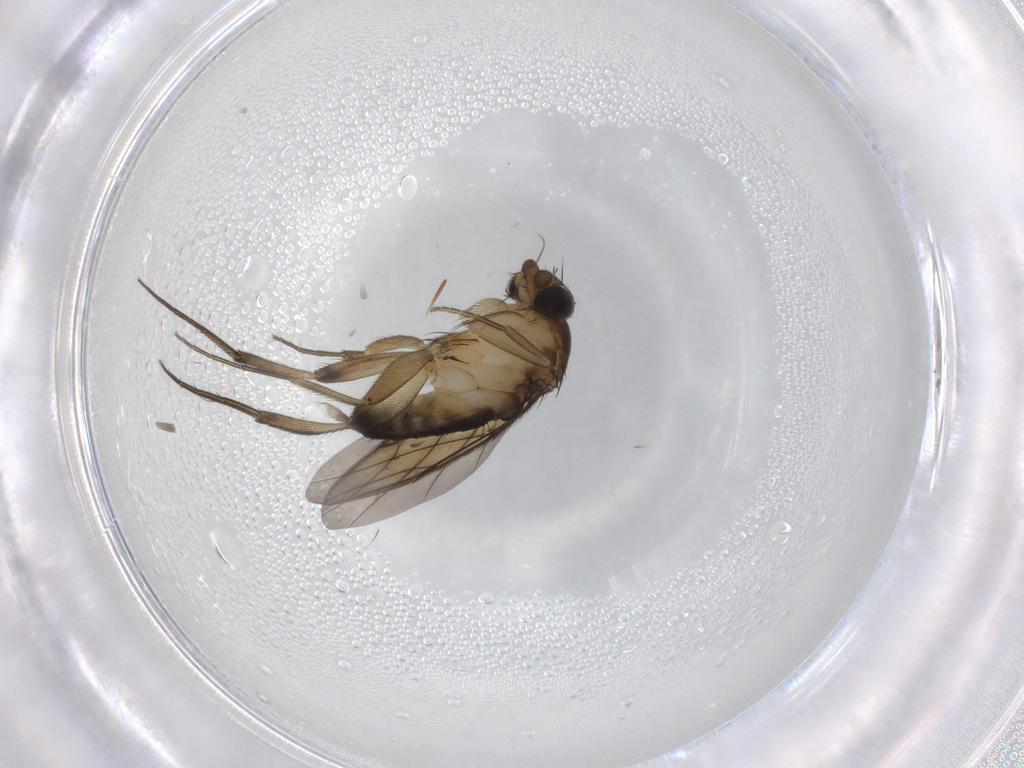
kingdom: Animalia
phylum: Arthropoda
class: Insecta
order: Diptera
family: Phoridae
